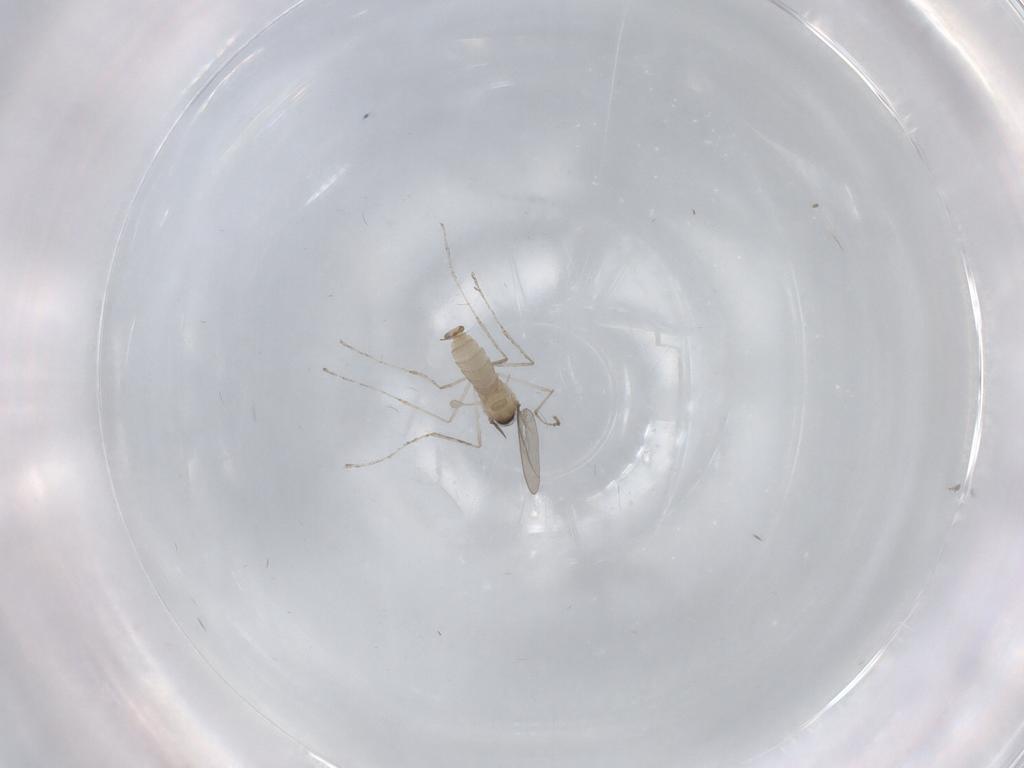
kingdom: Animalia
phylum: Arthropoda
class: Insecta
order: Diptera
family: Cecidomyiidae
